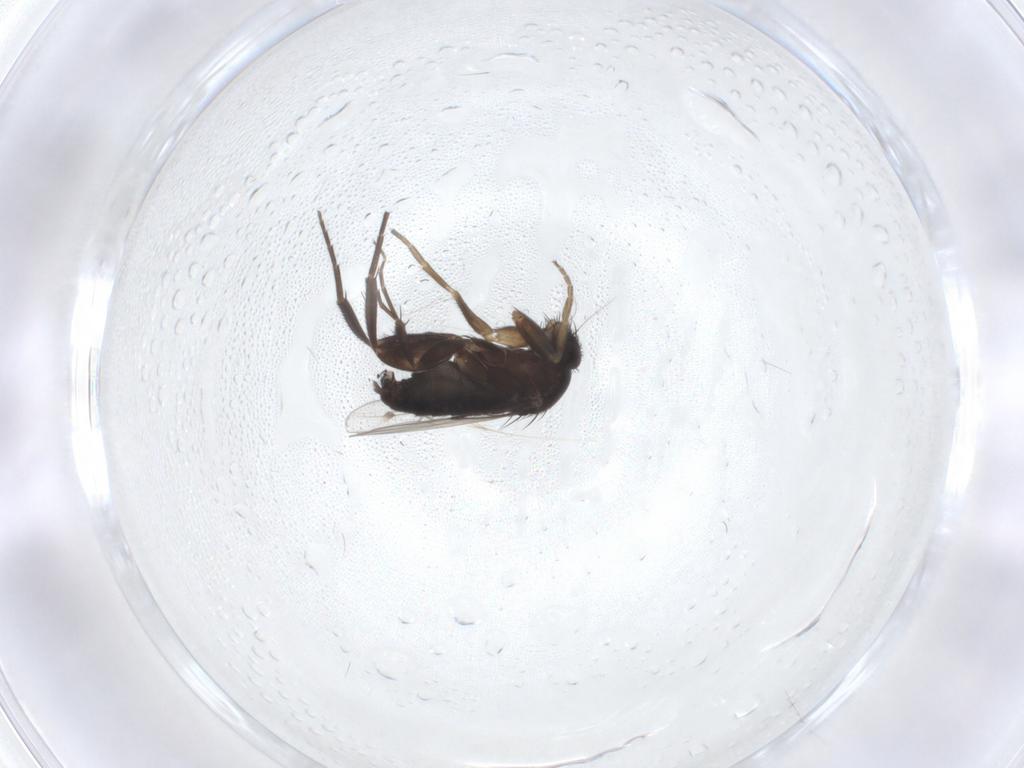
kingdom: Animalia
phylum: Arthropoda
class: Insecta
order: Diptera
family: Phoridae
